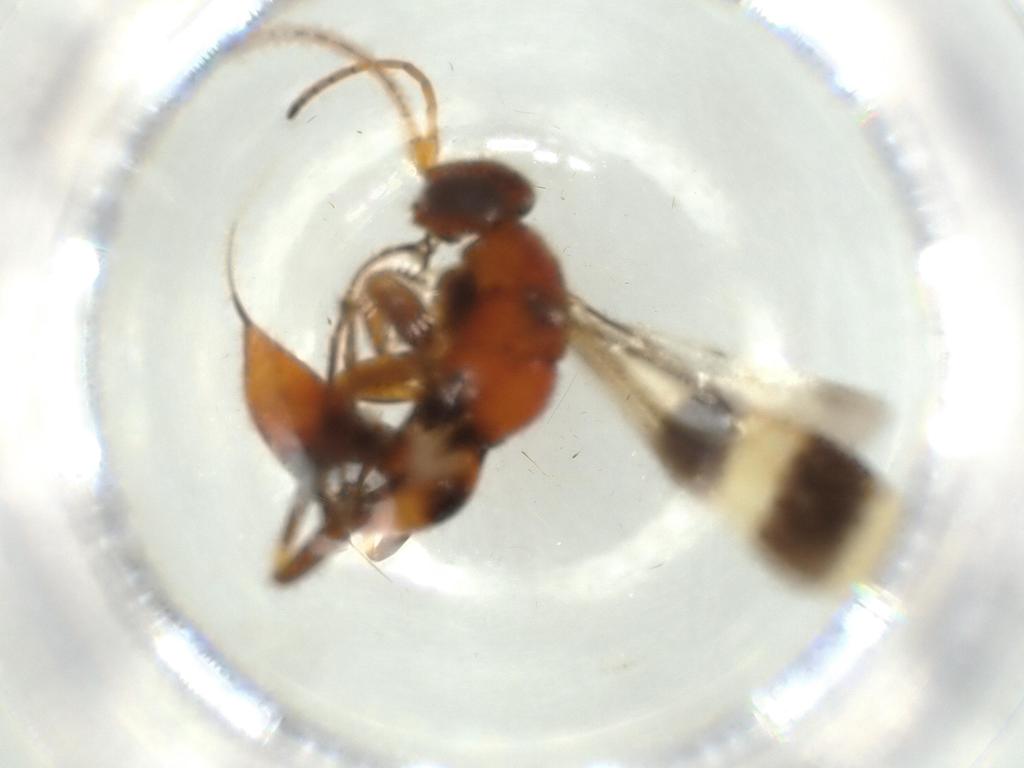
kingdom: Animalia
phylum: Arthropoda
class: Insecta
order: Hymenoptera
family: Pompilidae
